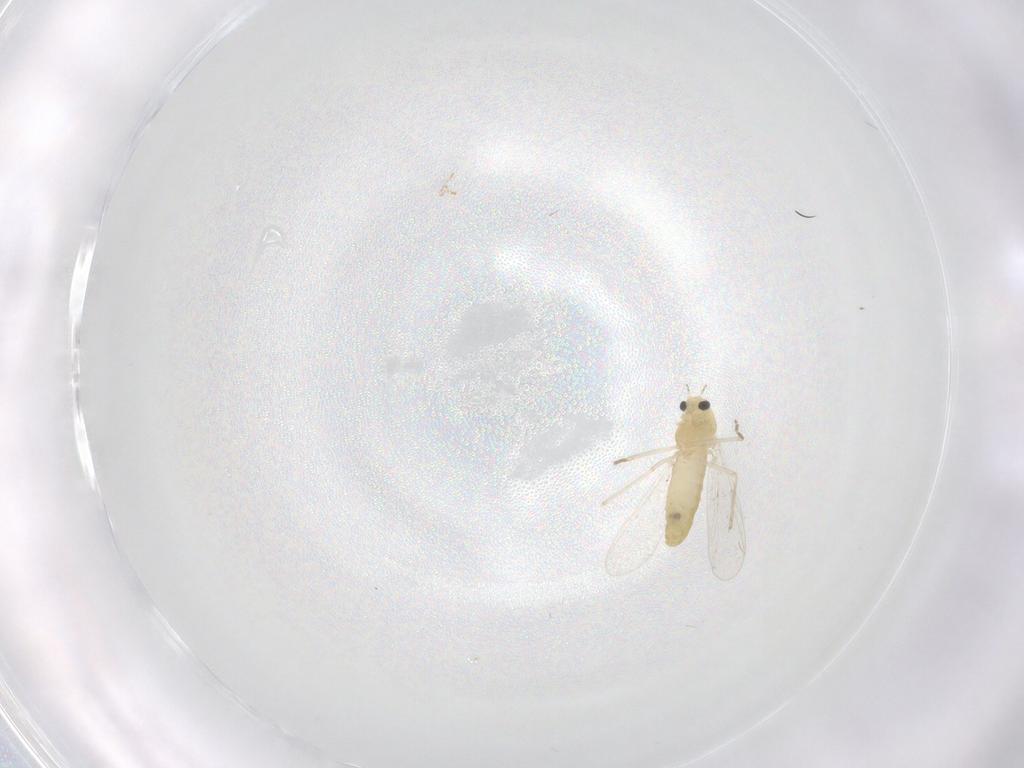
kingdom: Animalia
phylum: Arthropoda
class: Insecta
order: Diptera
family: Chironomidae
